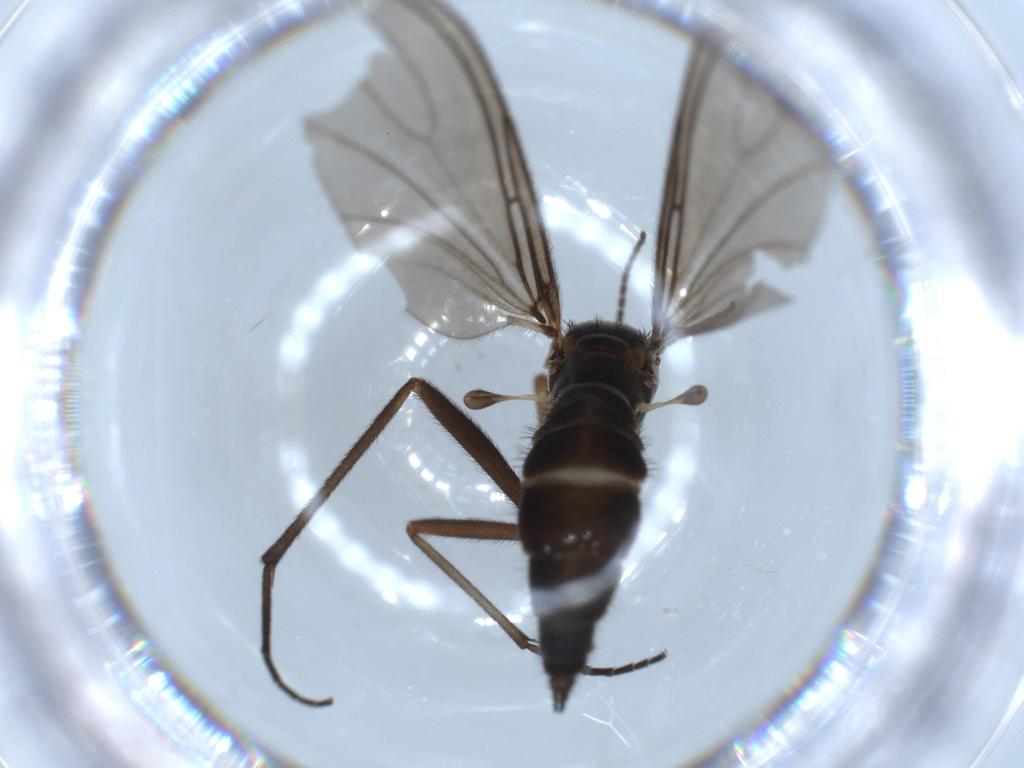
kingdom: Animalia
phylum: Arthropoda
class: Insecta
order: Diptera
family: Sciaridae
